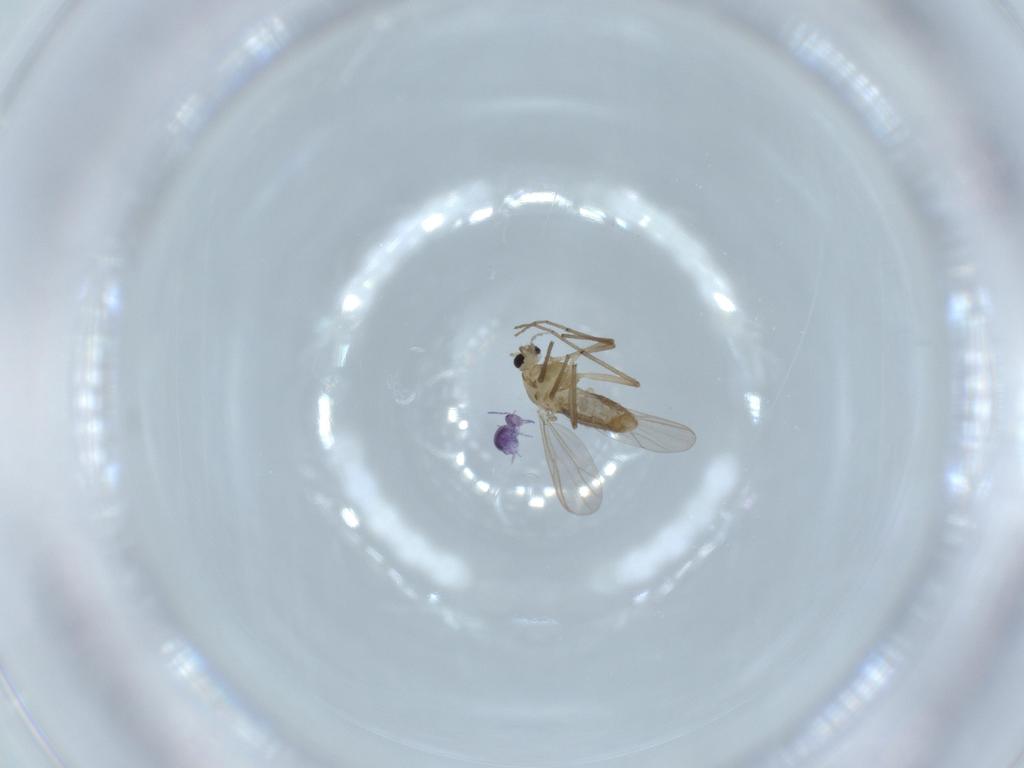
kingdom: Animalia
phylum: Arthropoda
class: Insecta
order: Diptera
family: Chironomidae
